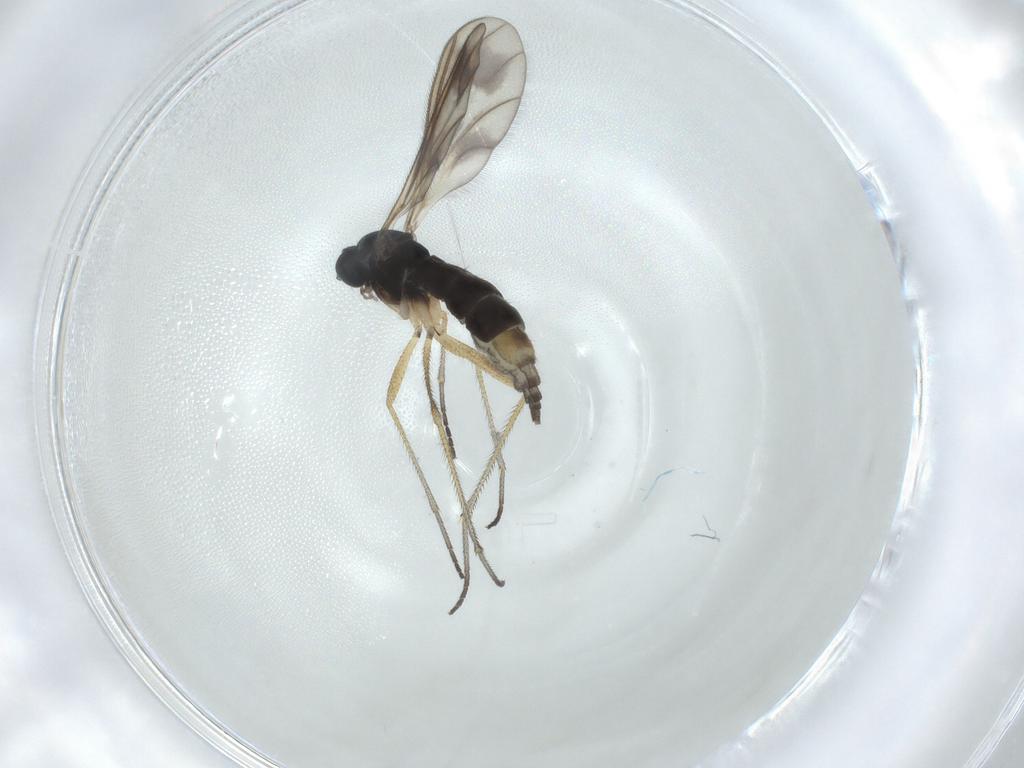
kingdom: Animalia
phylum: Arthropoda
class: Insecta
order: Diptera
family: Sciaridae
